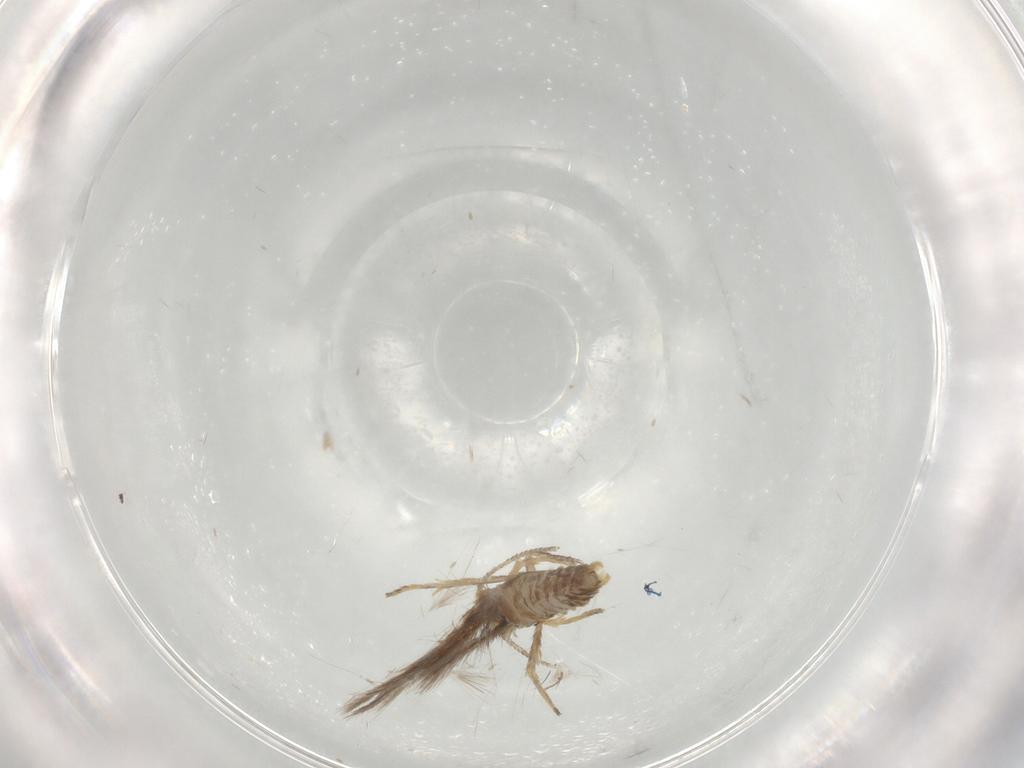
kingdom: Animalia
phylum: Arthropoda
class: Insecta
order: Lepidoptera
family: Nepticulidae
